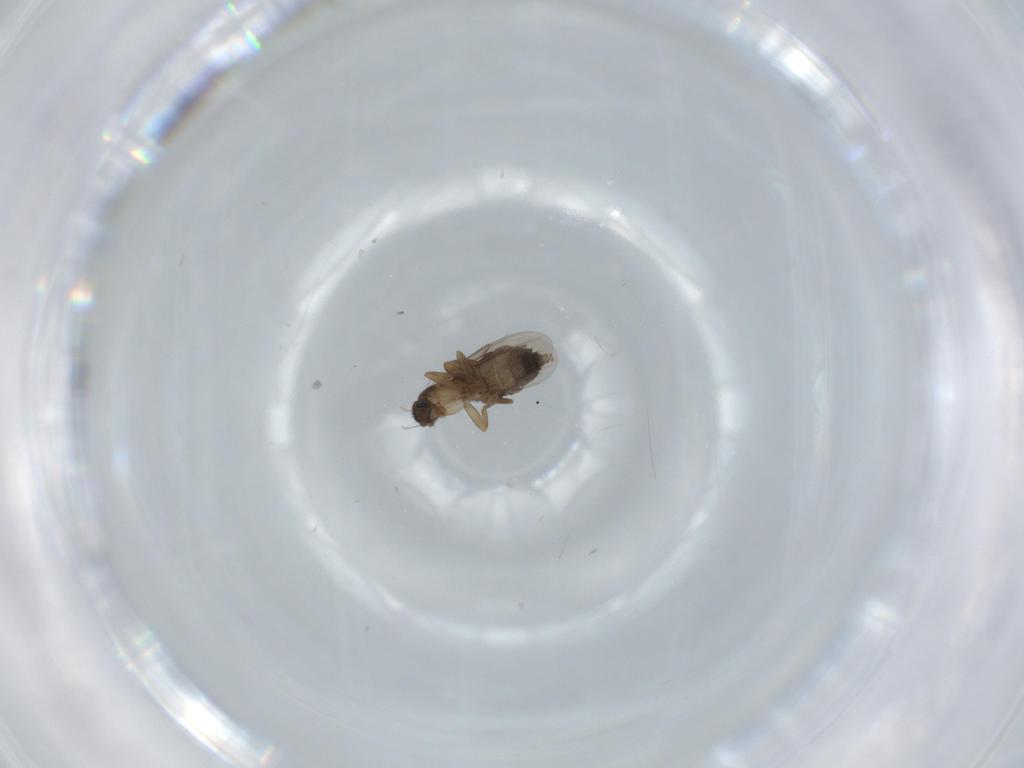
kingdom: Animalia
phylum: Arthropoda
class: Insecta
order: Diptera
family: Phoridae
